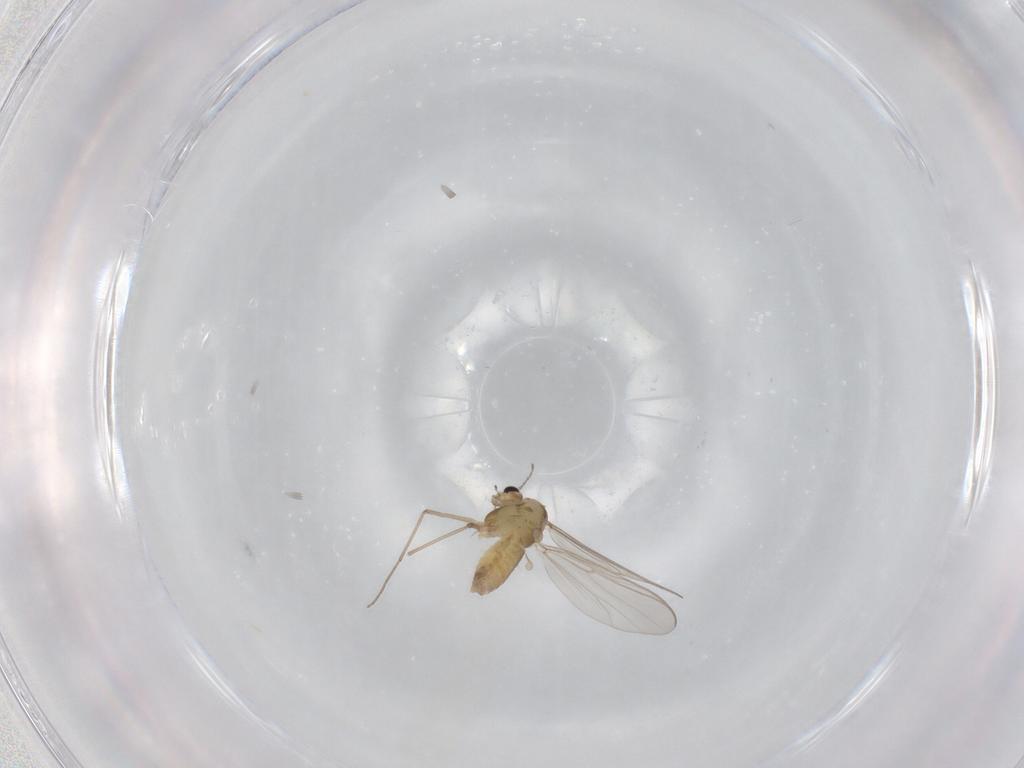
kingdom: Animalia
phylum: Arthropoda
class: Insecta
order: Diptera
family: Chironomidae
